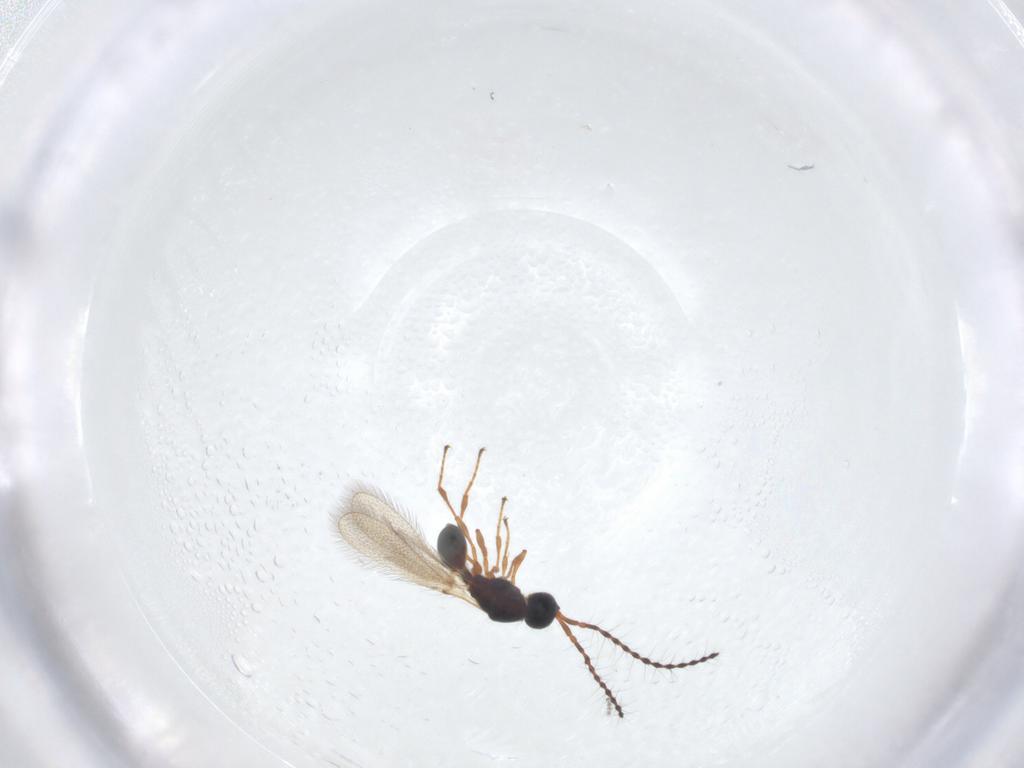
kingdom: Animalia
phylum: Arthropoda
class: Insecta
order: Hymenoptera
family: Diapriidae
